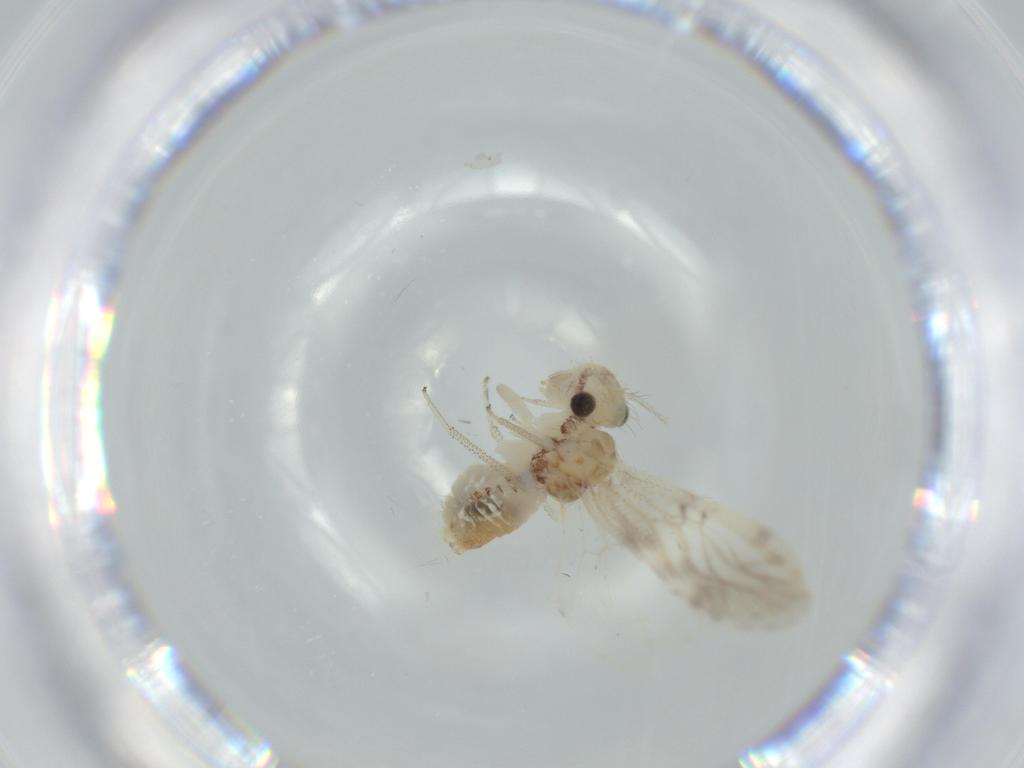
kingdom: Animalia
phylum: Arthropoda
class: Insecta
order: Psocodea
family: Pseudocaeciliidae
